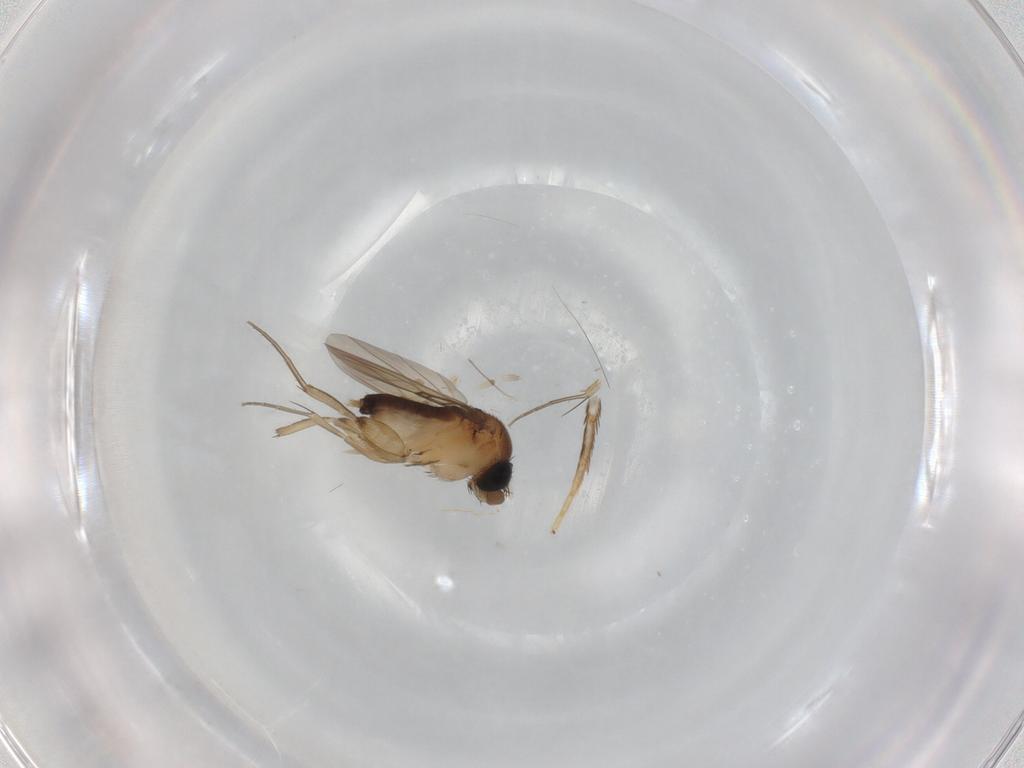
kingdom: Animalia
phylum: Arthropoda
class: Insecta
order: Diptera
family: Phoridae
